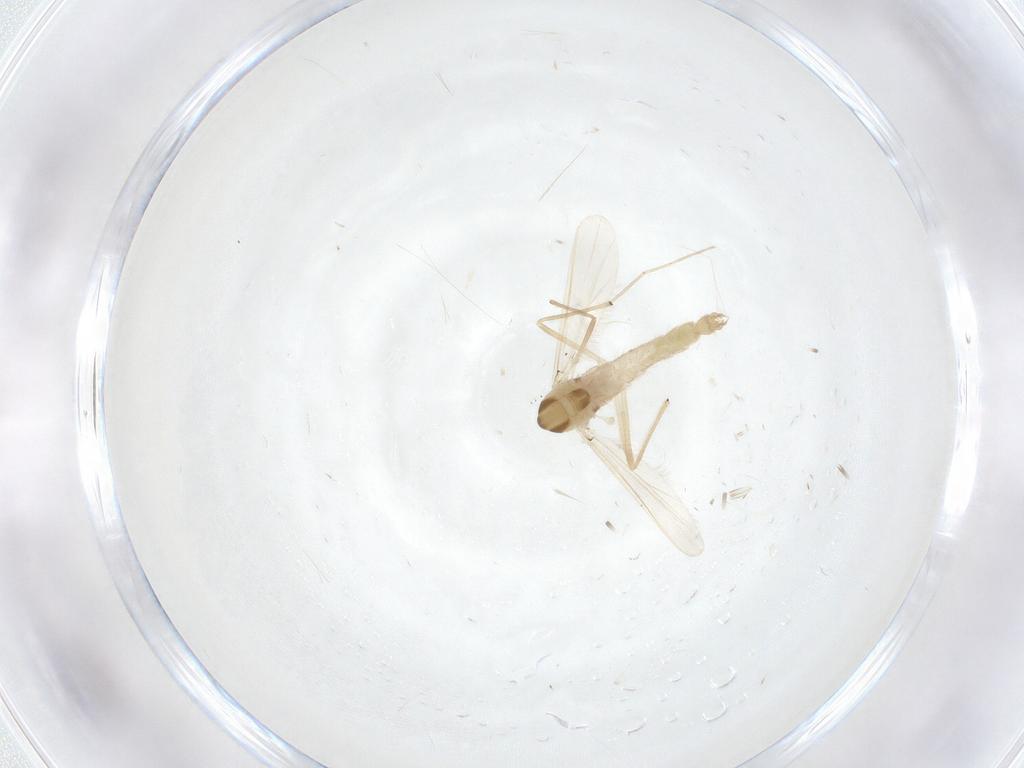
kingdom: Animalia
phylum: Arthropoda
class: Insecta
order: Diptera
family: Chironomidae
